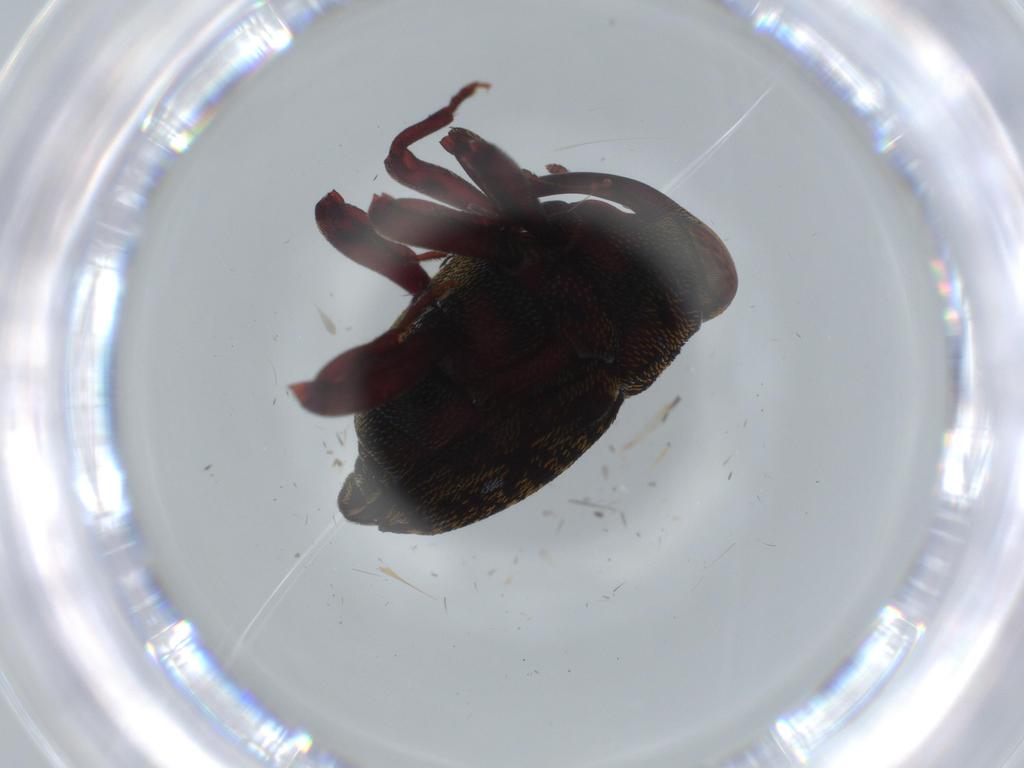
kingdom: Animalia
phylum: Arthropoda
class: Insecta
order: Coleoptera
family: Curculionidae
